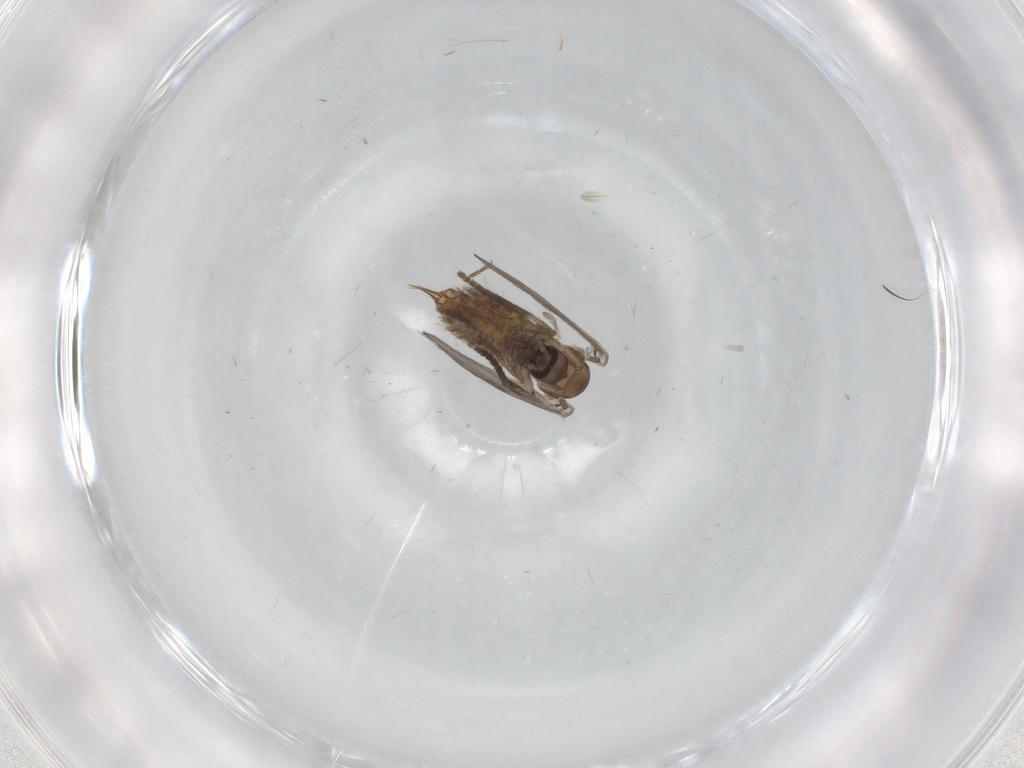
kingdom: Animalia
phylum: Arthropoda
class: Insecta
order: Diptera
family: Psychodidae
